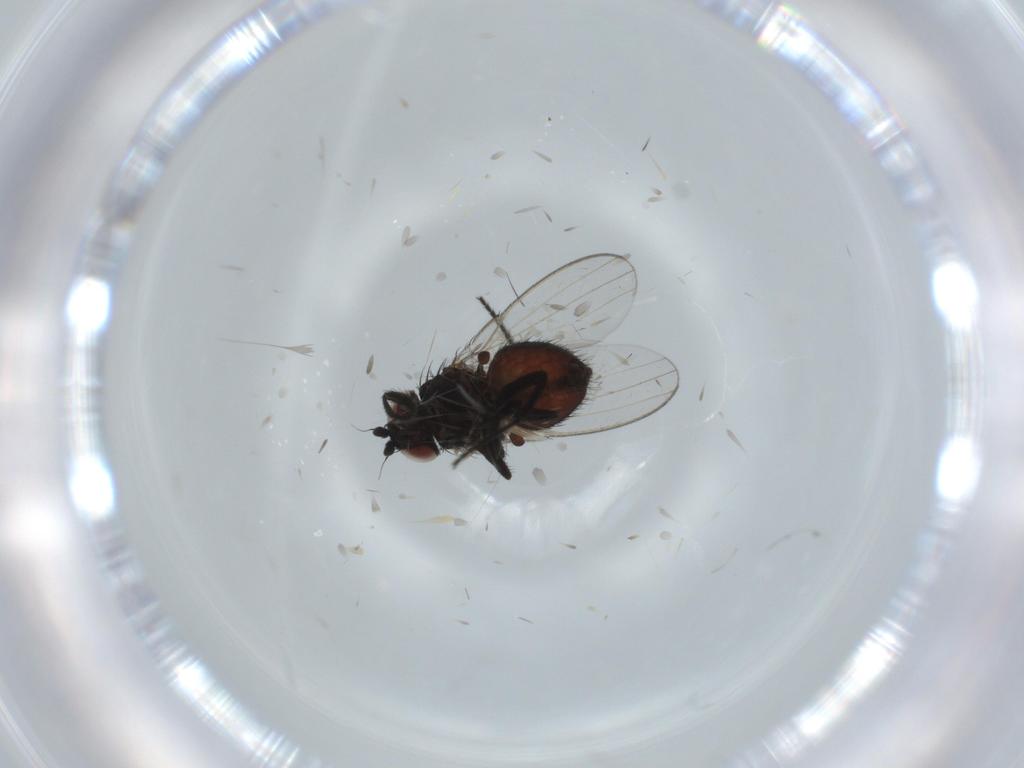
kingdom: Animalia
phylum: Arthropoda
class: Insecta
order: Diptera
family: Milichiidae
